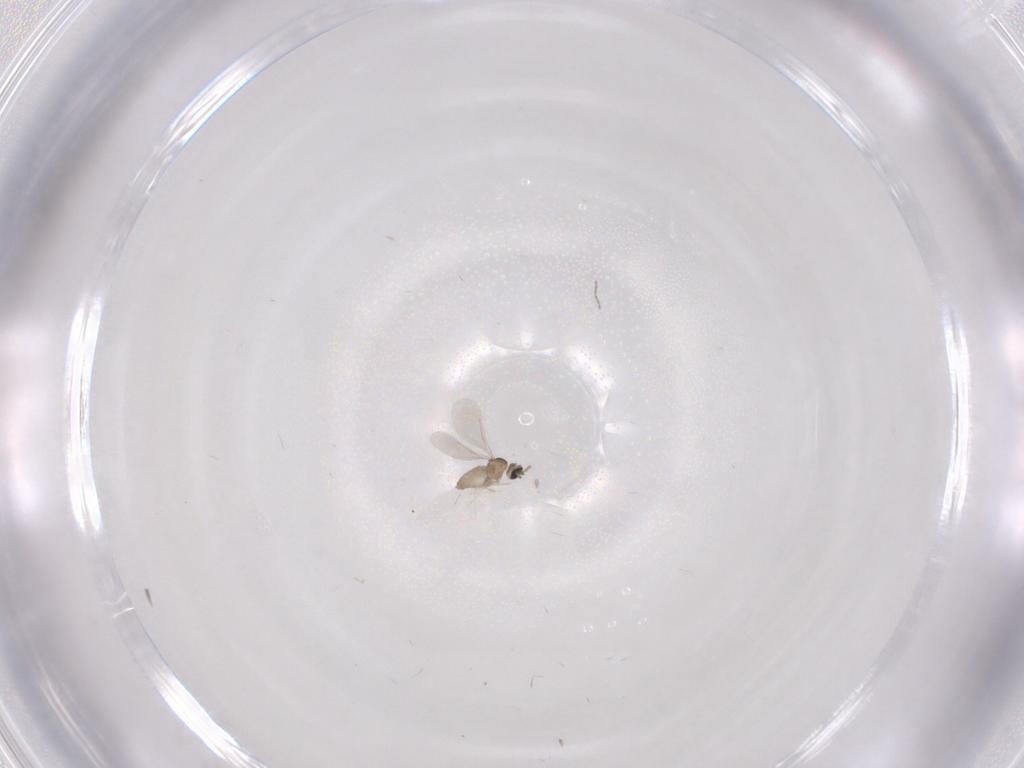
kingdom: Animalia
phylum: Arthropoda
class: Insecta
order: Diptera
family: Cecidomyiidae
